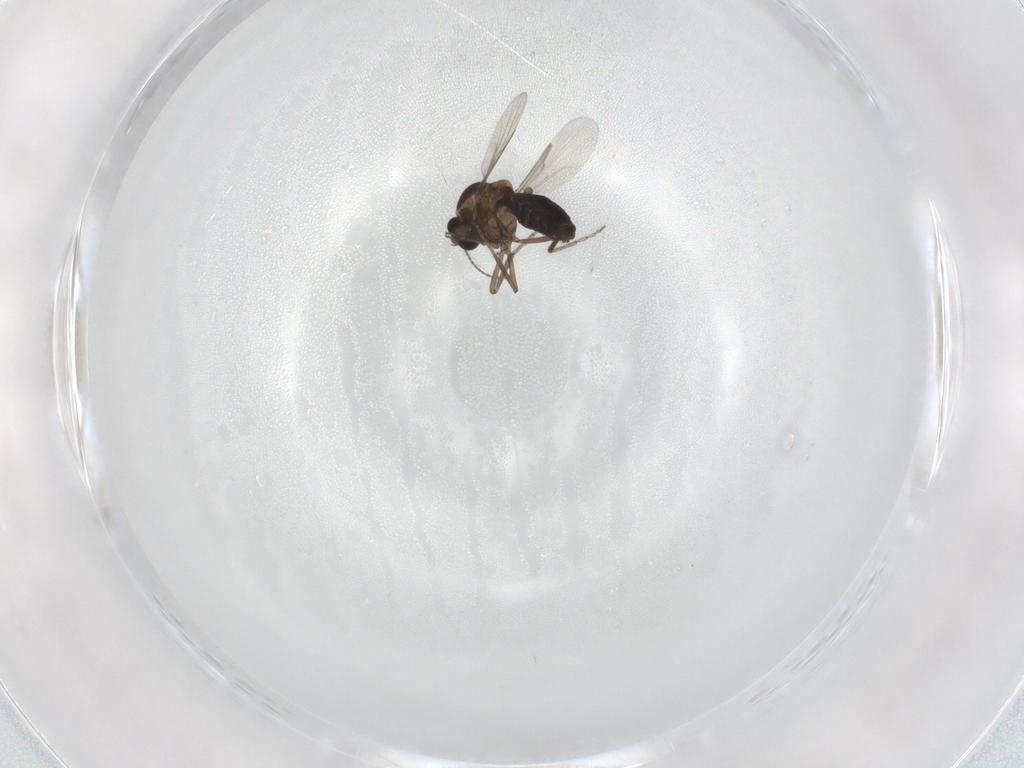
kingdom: Animalia
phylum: Arthropoda
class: Insecta
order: Diptera
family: Ceratopogonidae
